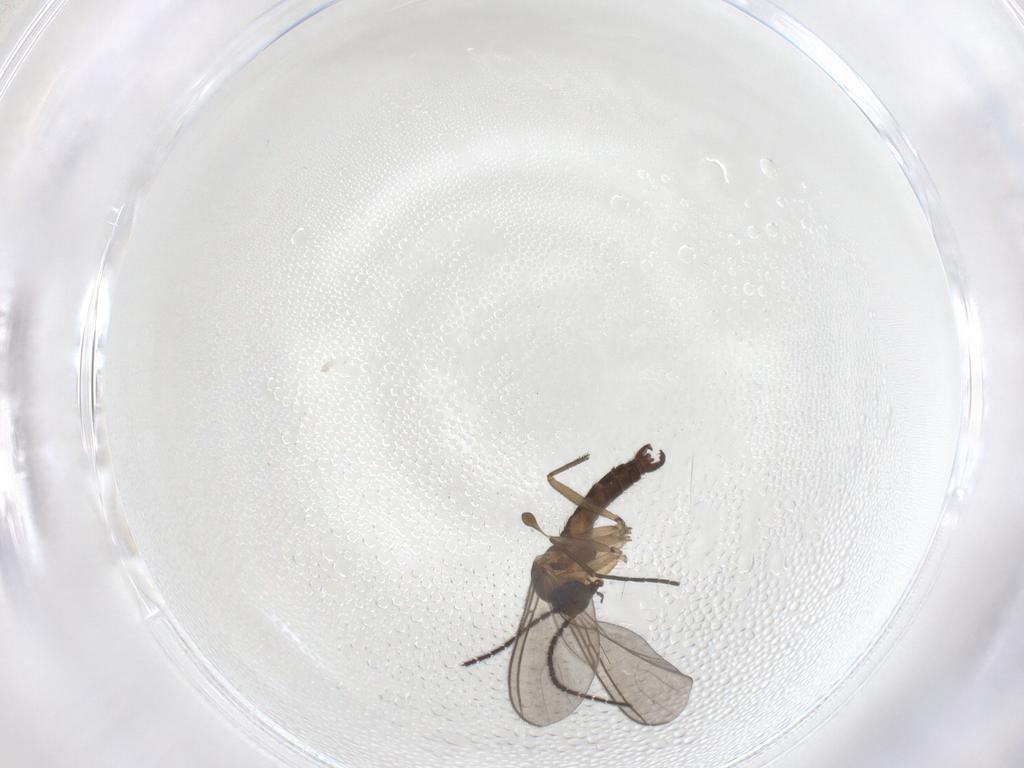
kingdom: Animalia
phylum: Arthropoda
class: Insecta
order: Diptera
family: Sciaridae
